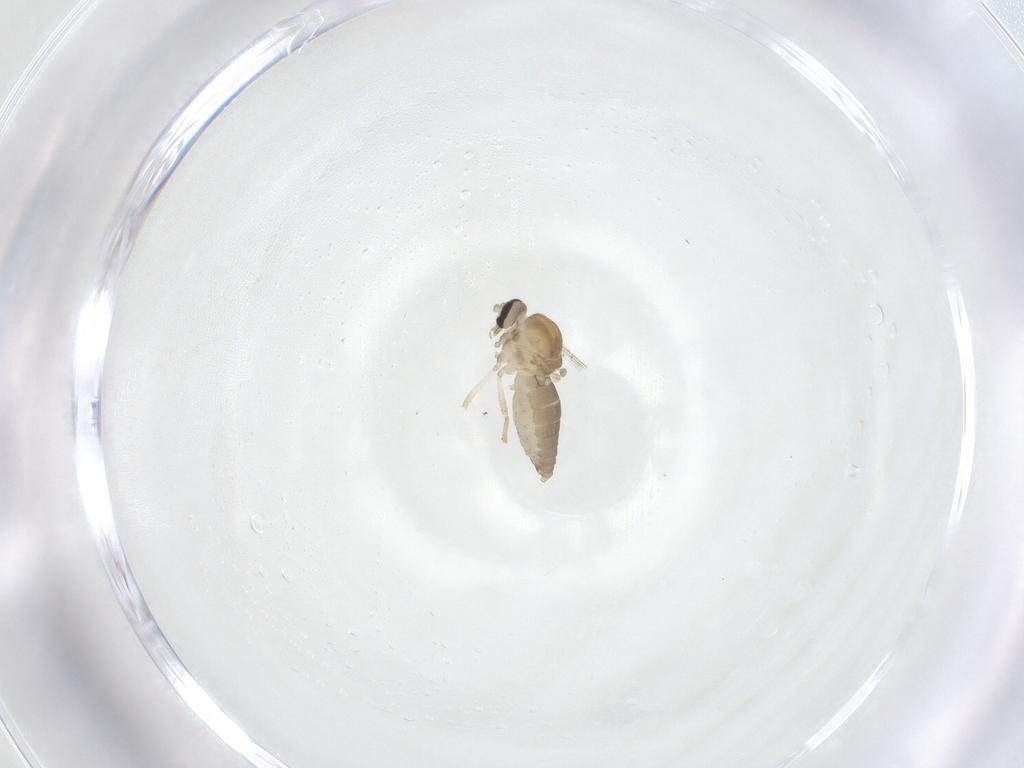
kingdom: Animalia
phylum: Arthropoda
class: Insecta
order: Diptera
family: Ceratopogonidae
